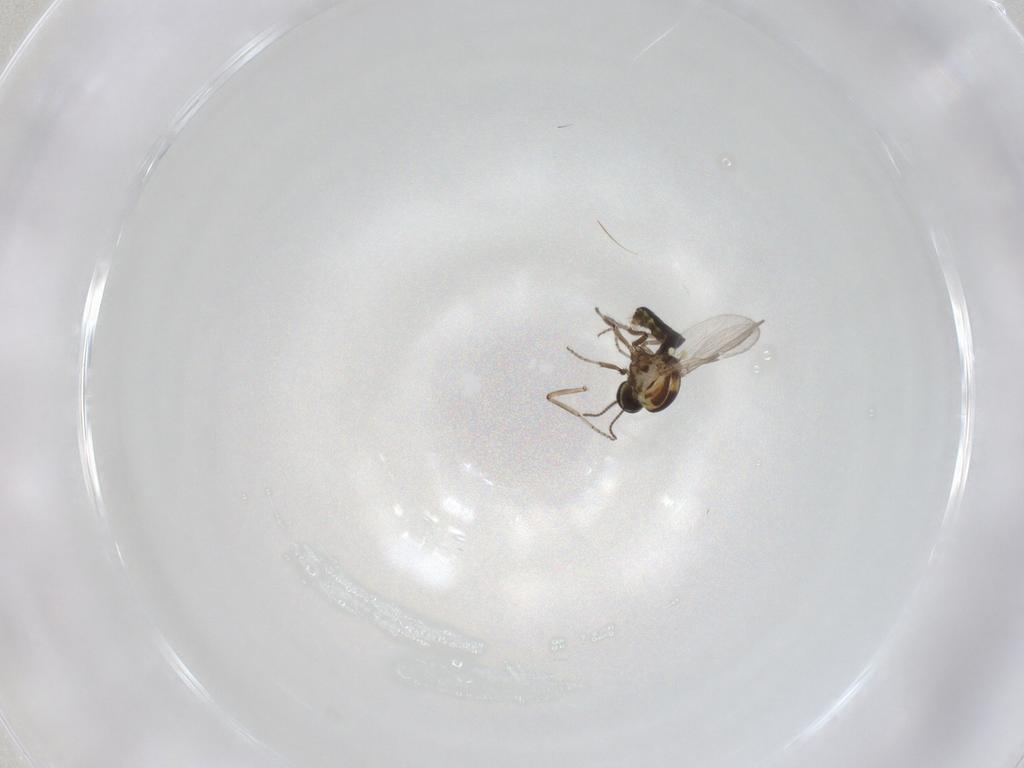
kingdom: Animalia
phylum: Arthropoda
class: Insecta
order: Diptera
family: Ceratopogonidae
